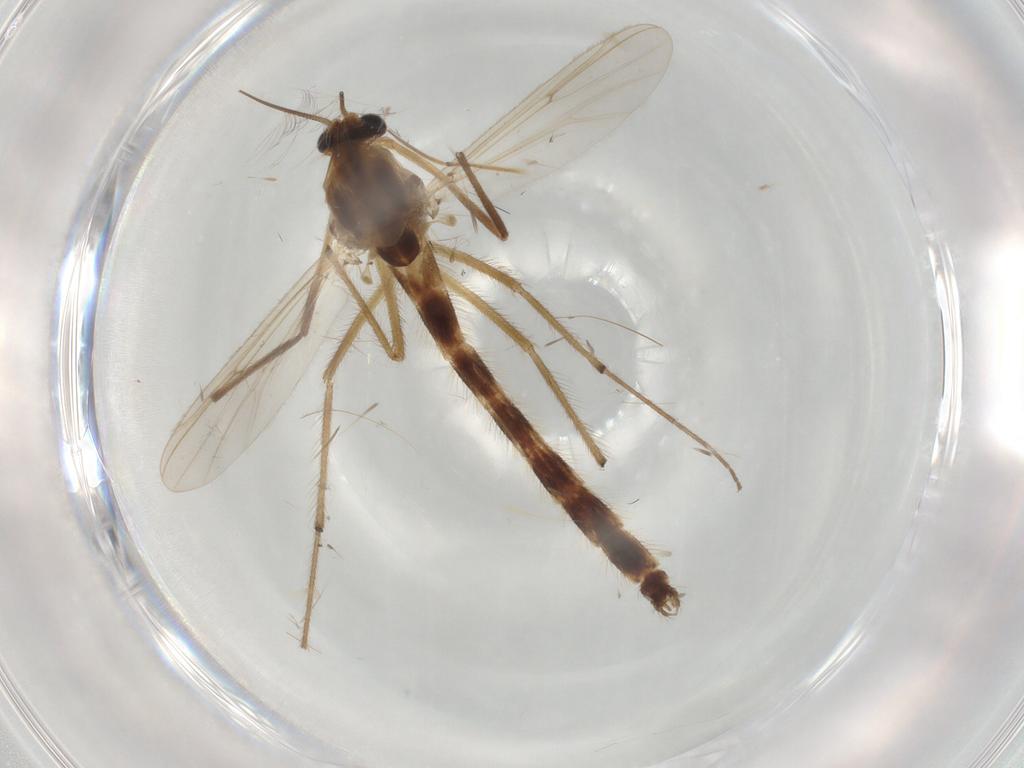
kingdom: Animalia
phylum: Arthropoda
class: Insecta
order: Diptera
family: Chironomidae
